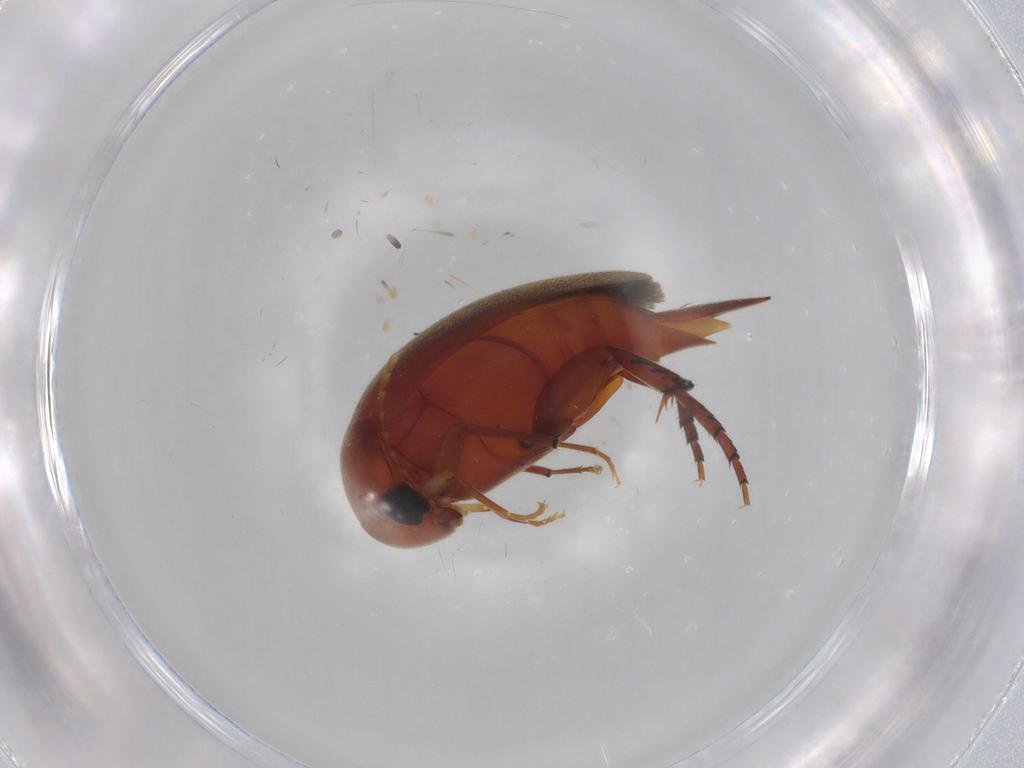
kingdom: Animalia
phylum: Arthropoda
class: Insecta
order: Coleoptera
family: Mordellidae
